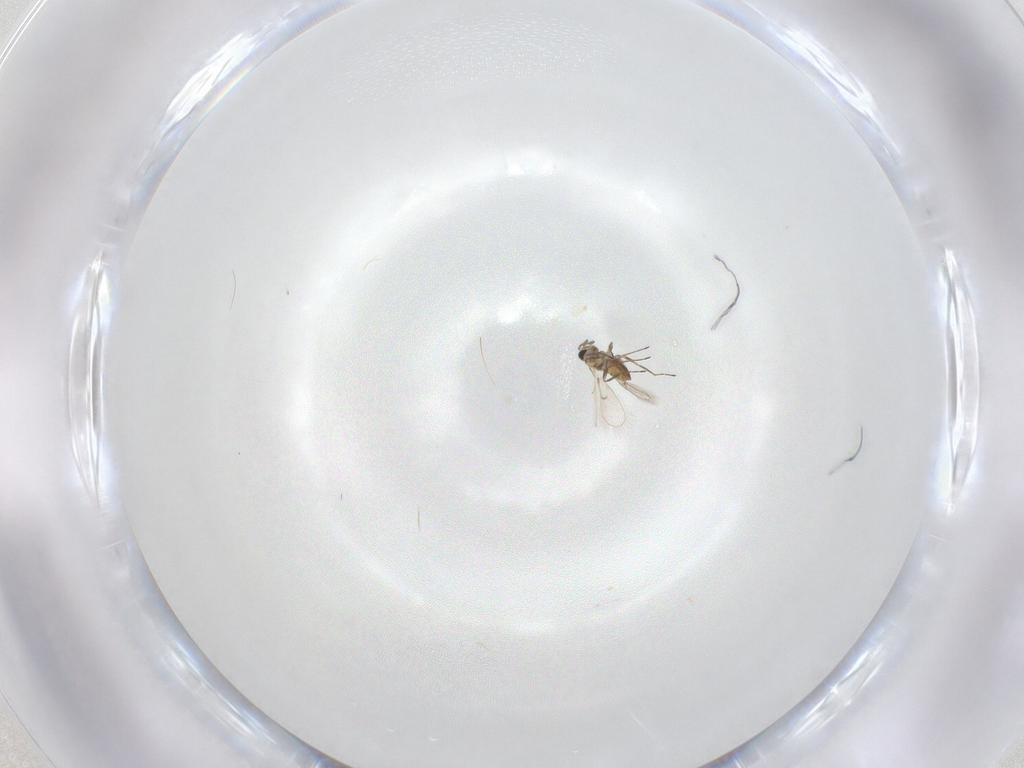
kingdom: Animalia
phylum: Arthropoda
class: Insecta
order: Hymenoptera
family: Trichogrammatidae
